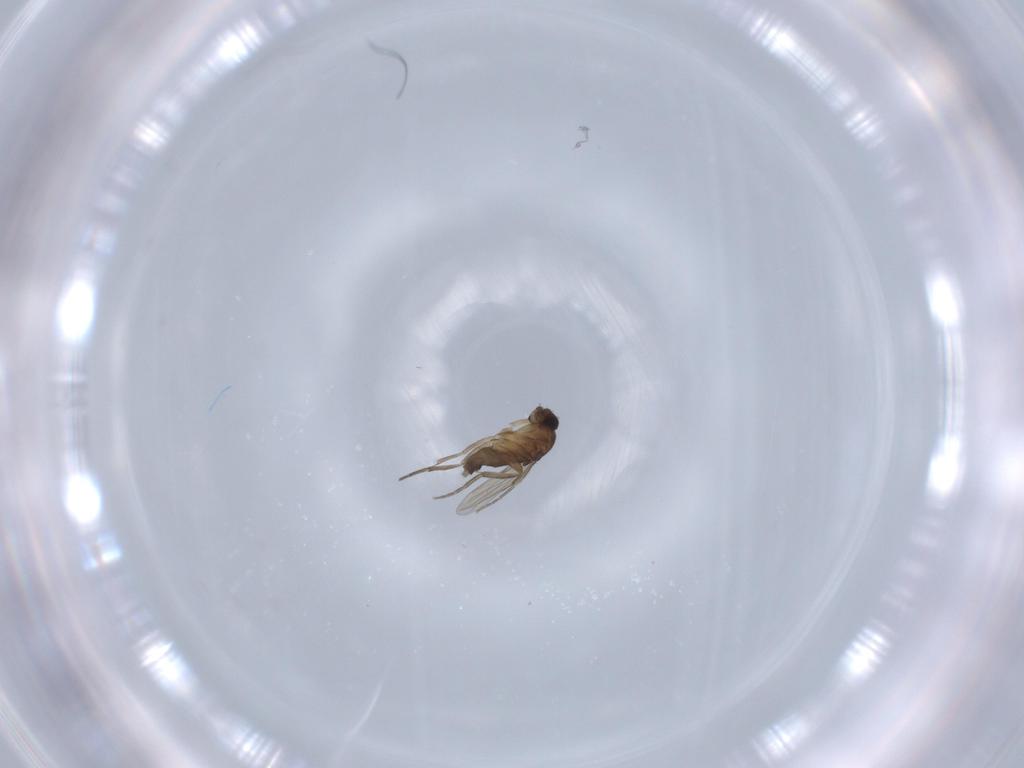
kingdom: Animalia
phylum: Arthropoda
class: Insecta
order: Diptera
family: Phoridae
